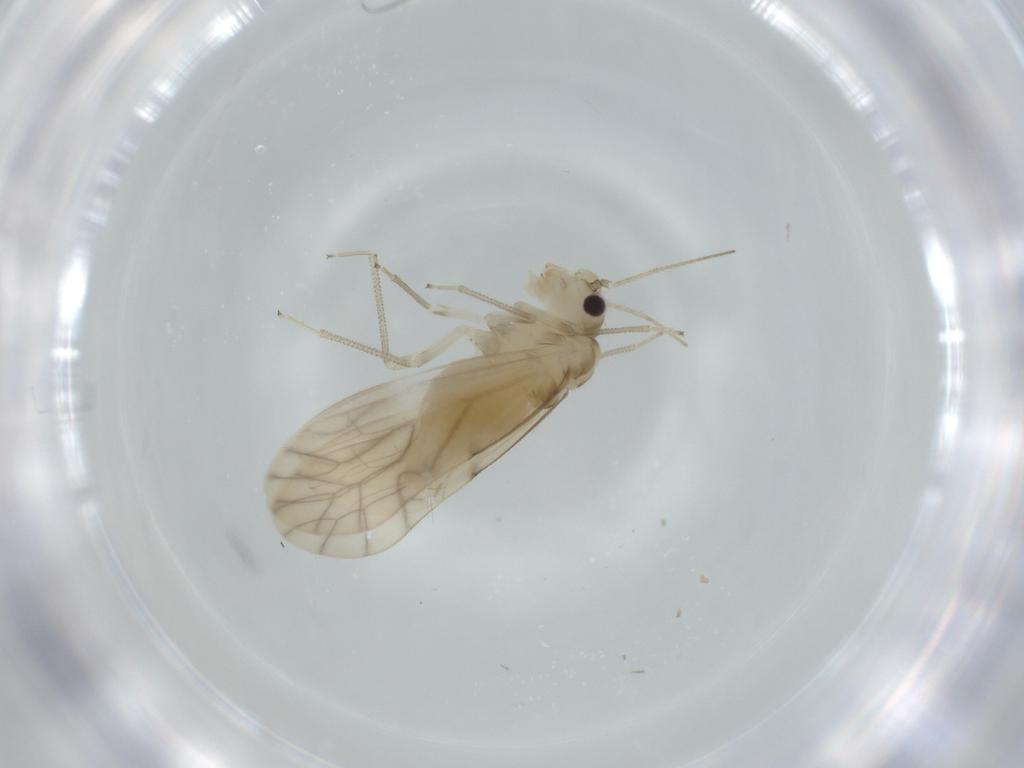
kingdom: Animalia
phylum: Arthropoda
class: Insecta
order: Psocodea
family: Caeciliusidae
